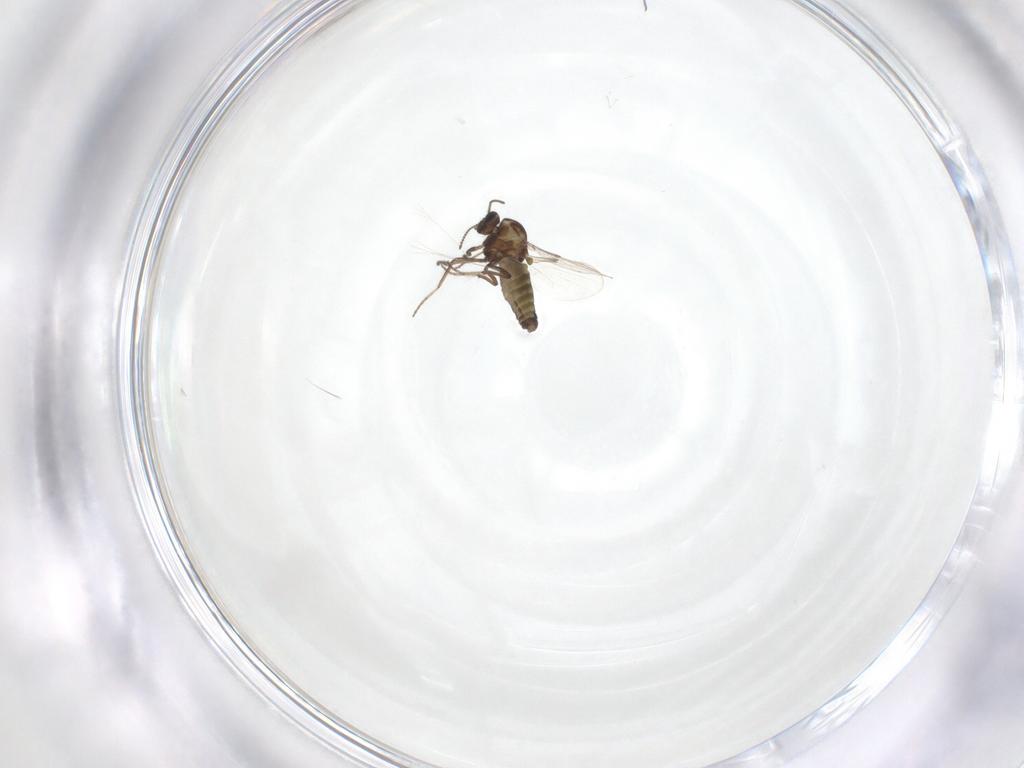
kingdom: Animalia
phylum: Arthropoda
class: Insecta
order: Diptera
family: Ceratopogonidae
